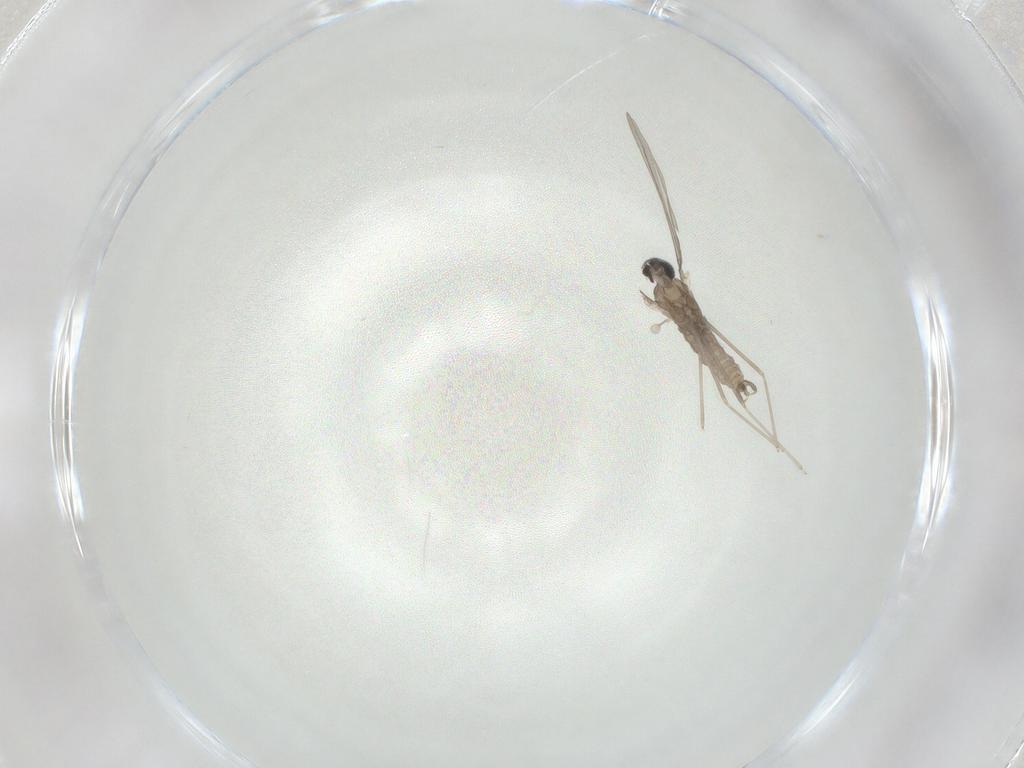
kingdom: Animalia
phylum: Arthropoda
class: Insecta
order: Diptera
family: Cecidomyiidae
